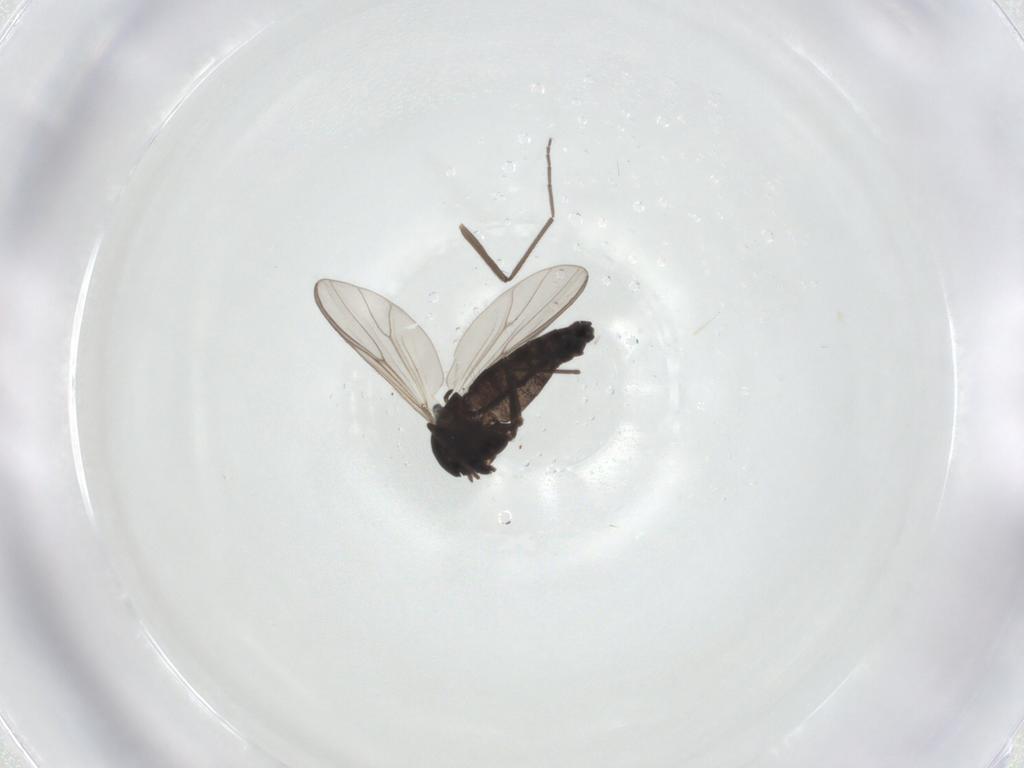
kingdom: Animalia
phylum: Arthropoda
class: Insecta
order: Diptera
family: Chironomidae
